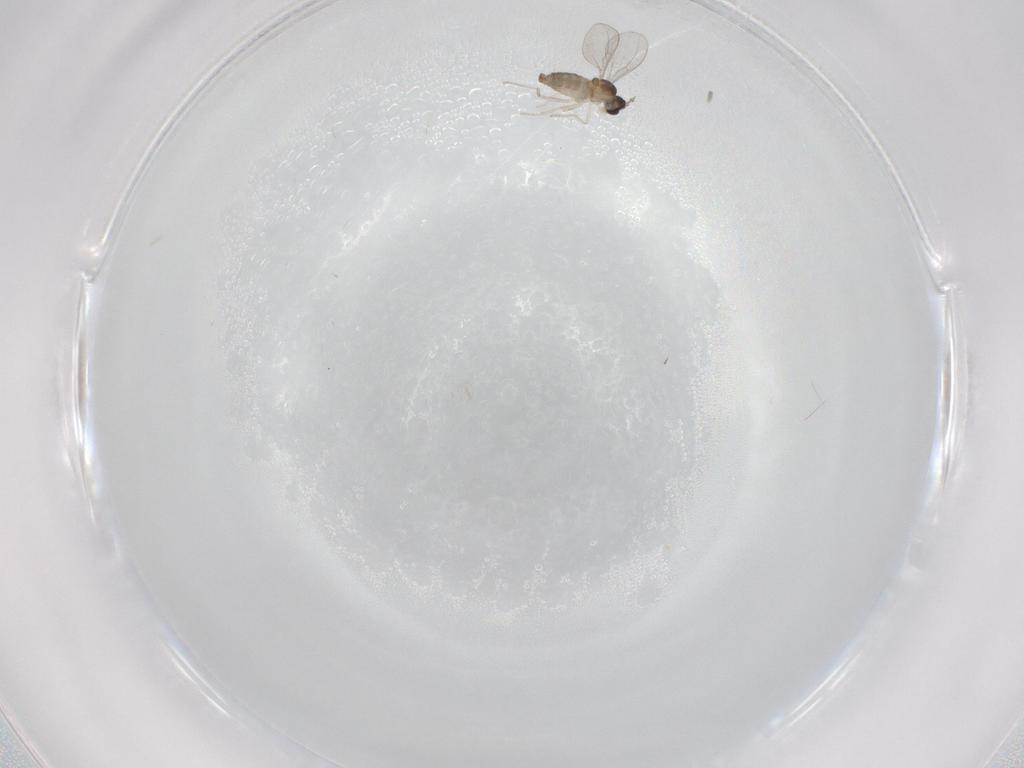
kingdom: Animalia
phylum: Arthropoda
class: Insecta
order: Diptera
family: Cecidomyiidae
